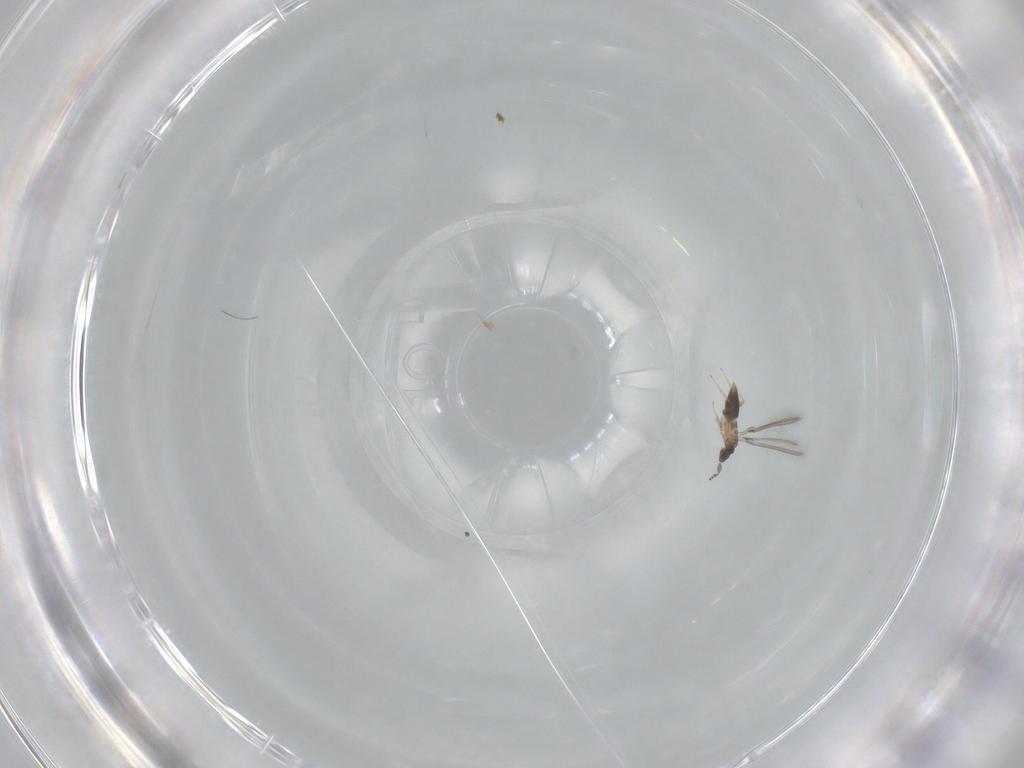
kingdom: Animalia
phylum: Arthropoda
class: Insecta
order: Hymenoptera
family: Mymaridae
